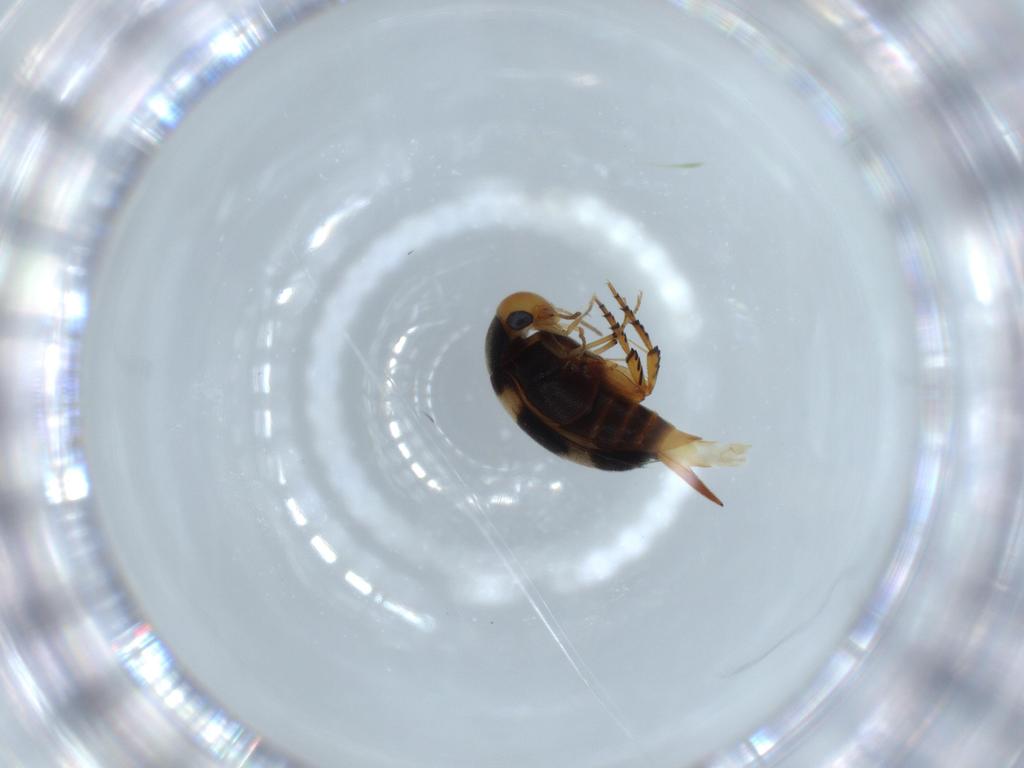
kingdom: Animalia
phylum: Arthropoda
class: Insecta
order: Coleoptera
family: Mordellidae
